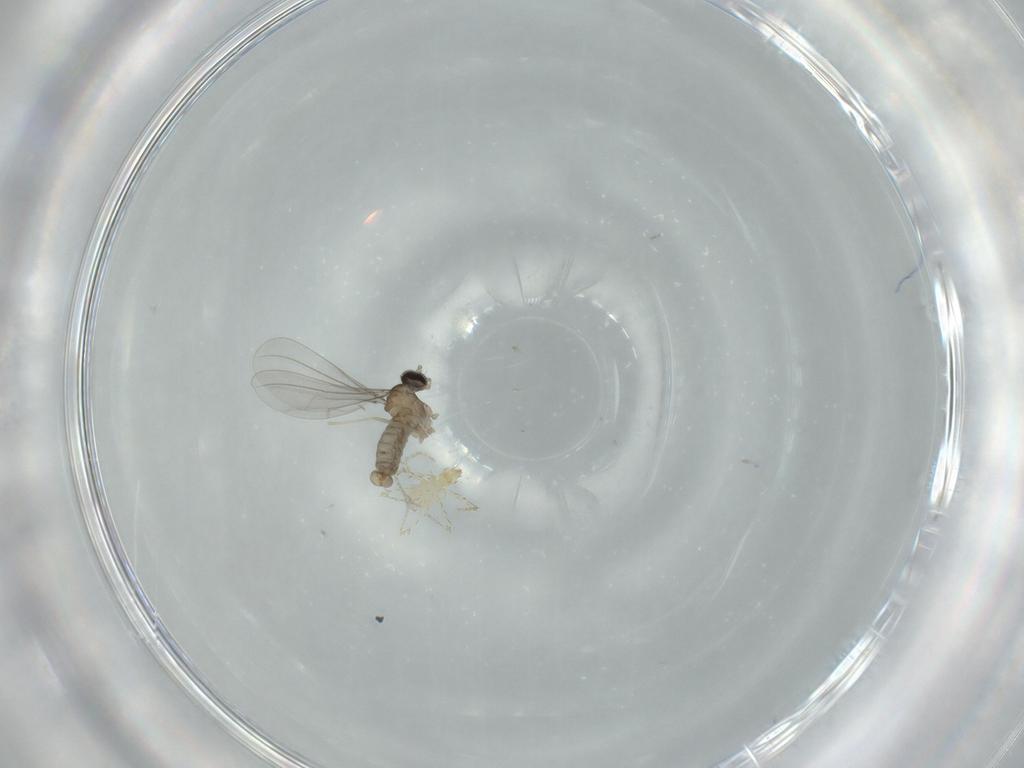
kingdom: Animalia
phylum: Arthropoda
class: Insecta
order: Diptera
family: Cecidomyiidae
